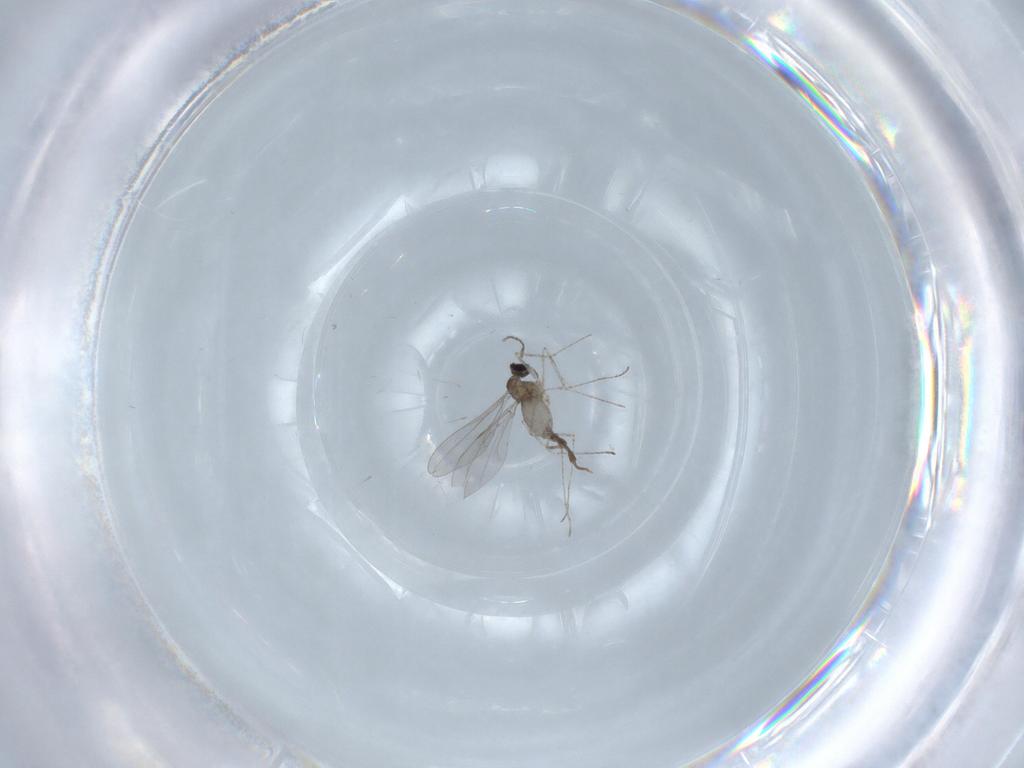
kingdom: Animalia
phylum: Arthropoda
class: Insecta
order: Diptera
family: Cecidomyiidae
